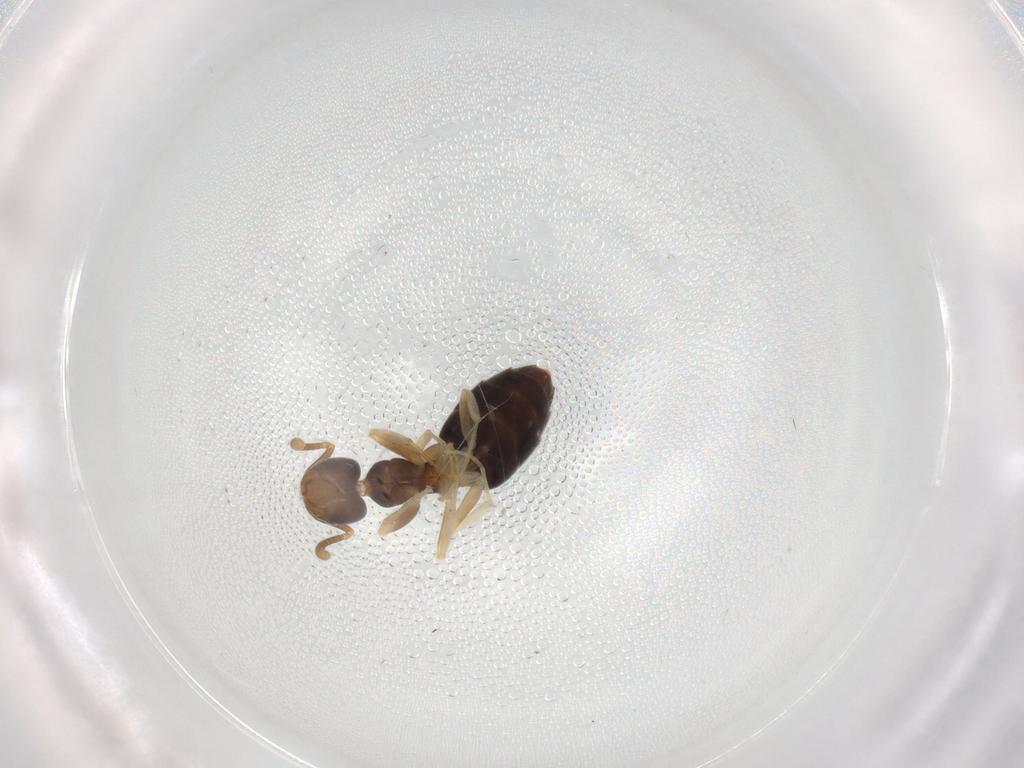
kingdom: Animalia
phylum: Arthropoda
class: Insecta
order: Hymenoptera
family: Formicidae
